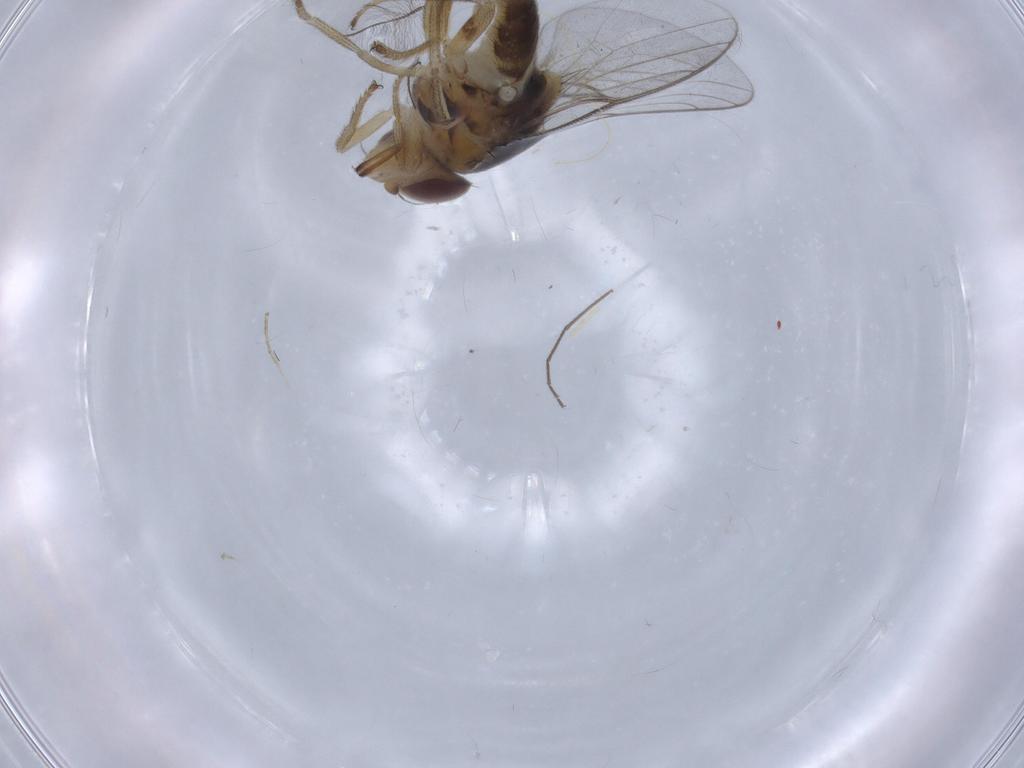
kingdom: Animalia
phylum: Arthropoda
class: Insecta
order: Diptera
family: Chloropidae
